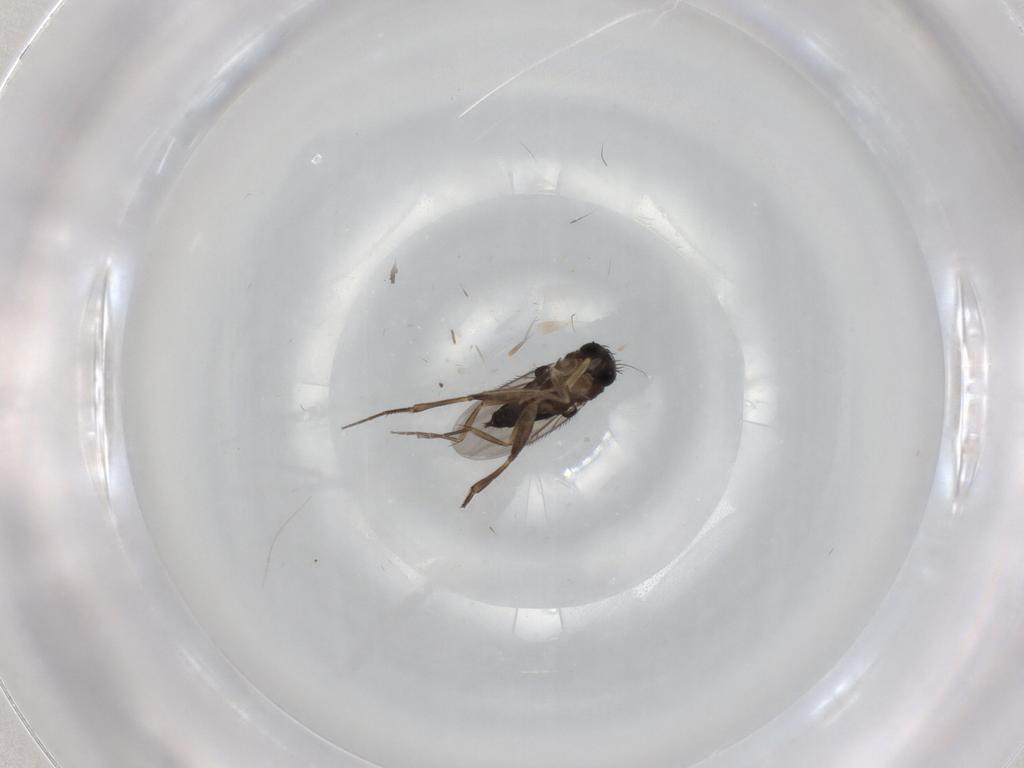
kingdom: Animalia
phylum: Arthropoda
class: Insecta
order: Diptera
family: Phoridae
